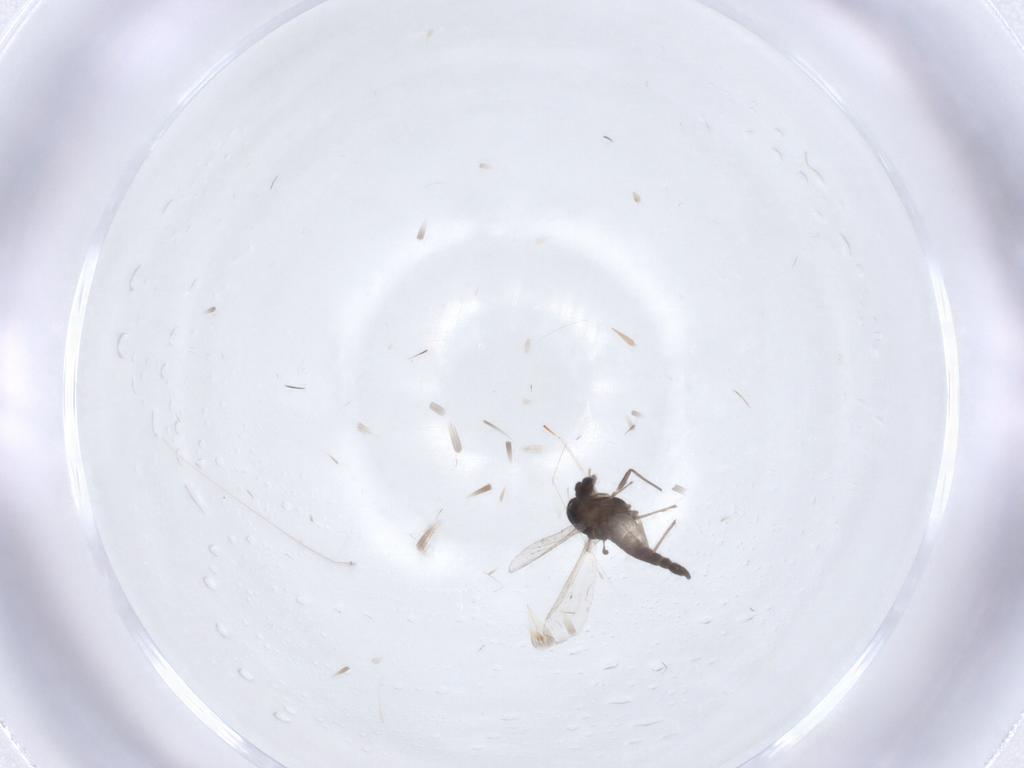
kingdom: Animalia
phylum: Arthropoda
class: Insecta
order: Diptera
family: Chironomidae
